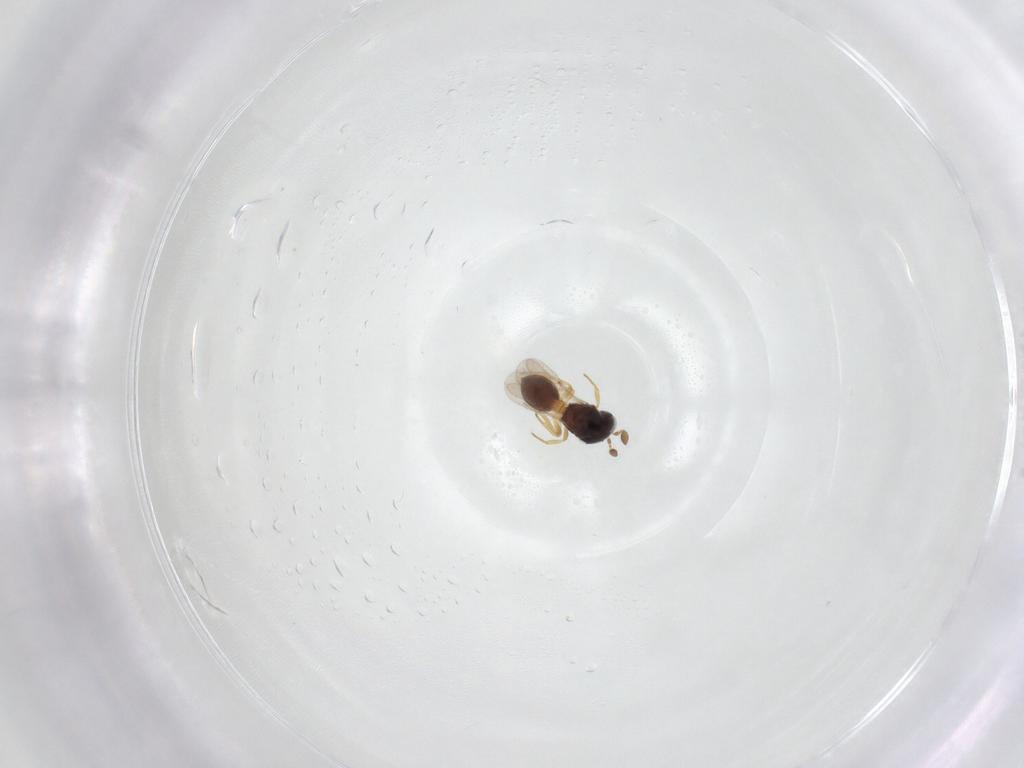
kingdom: Animalia
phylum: Arthropoda
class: Insecta
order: Hymenoptera
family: Scelionidae
